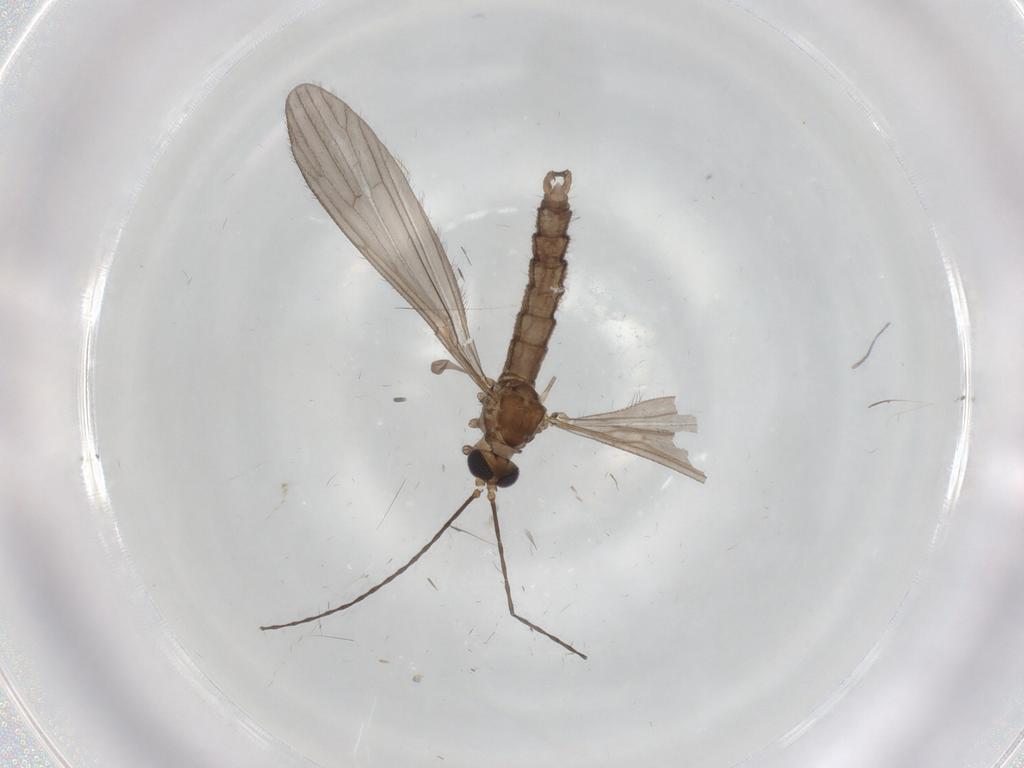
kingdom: Animalia
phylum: Arthropoda
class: Insecta
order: Diptera
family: Limoniidae
